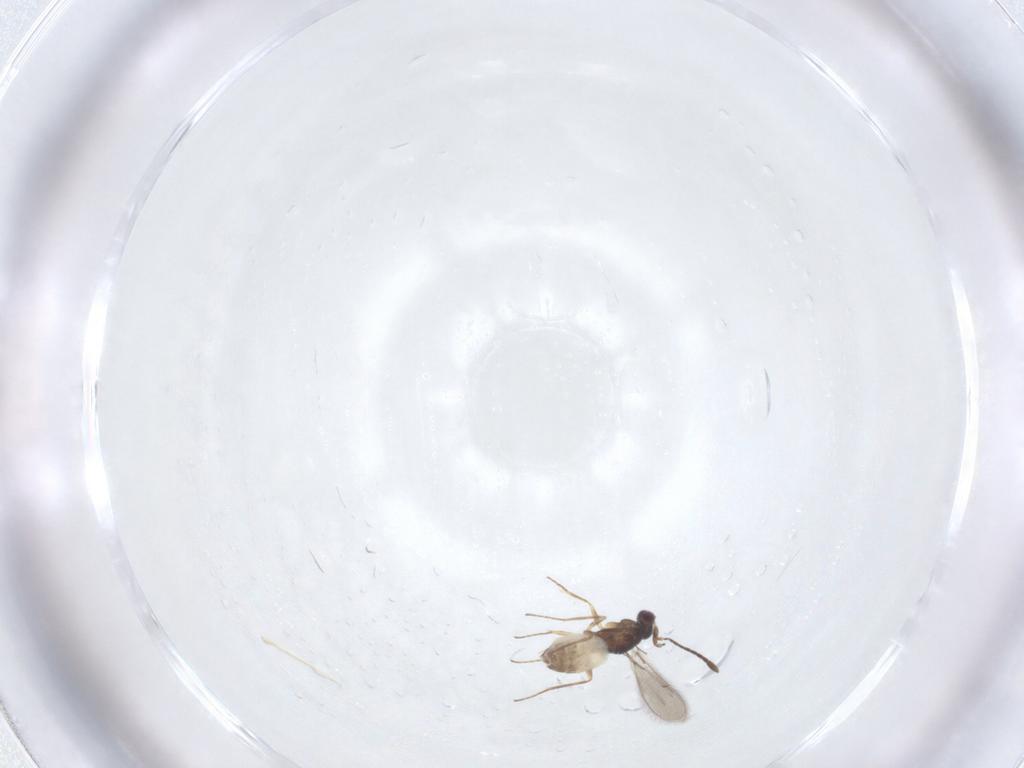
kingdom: Animalia
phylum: Arthropoda
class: Insecta
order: Hymenoptera
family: Mymaridae
